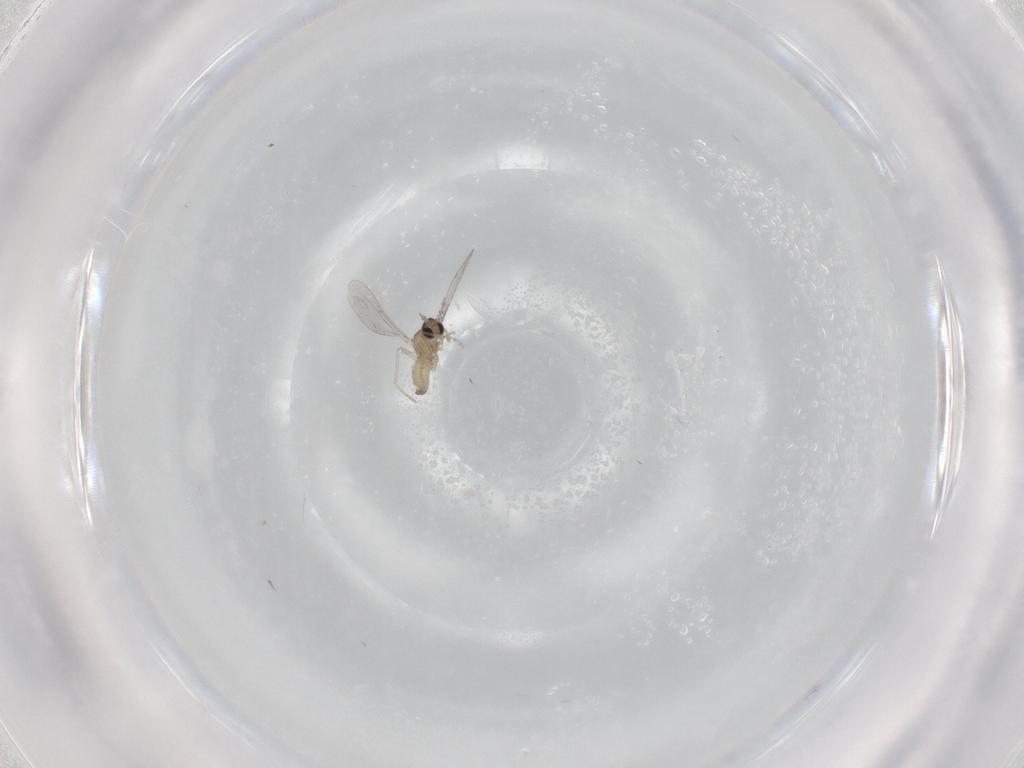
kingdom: Animalia
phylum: Arthropoda
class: Insecta
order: Diptera
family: Cecidomyiidae
